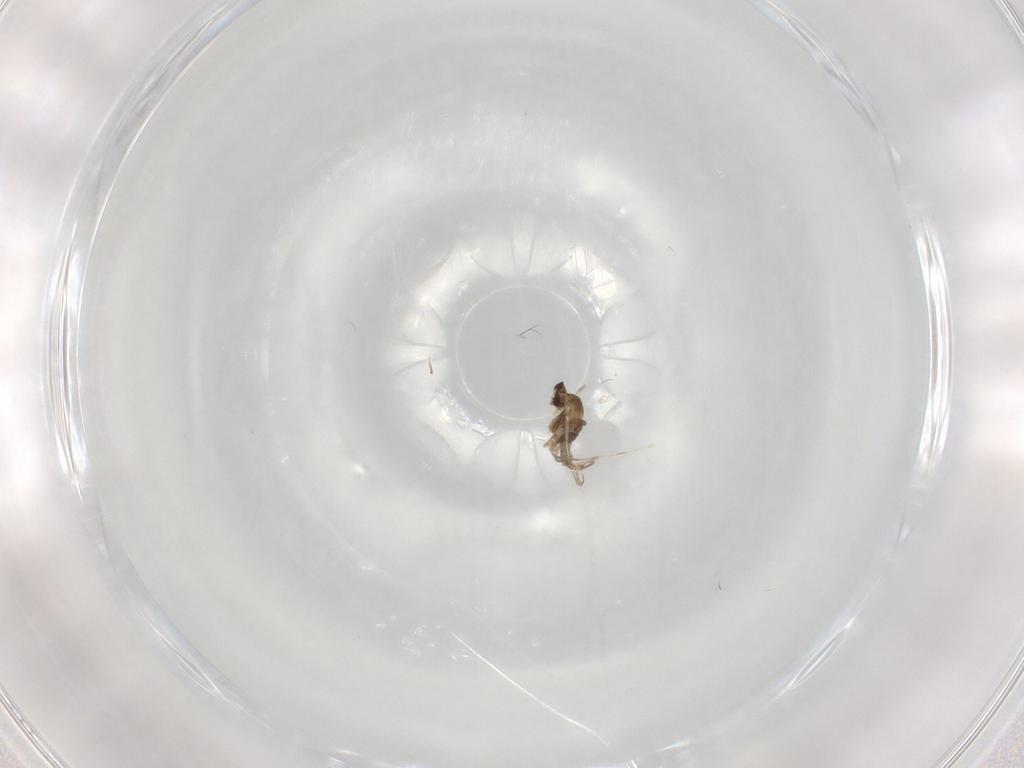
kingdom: Animalia
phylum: Arthropoda
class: Insecta
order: Diptera
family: Cecidomyiidae
